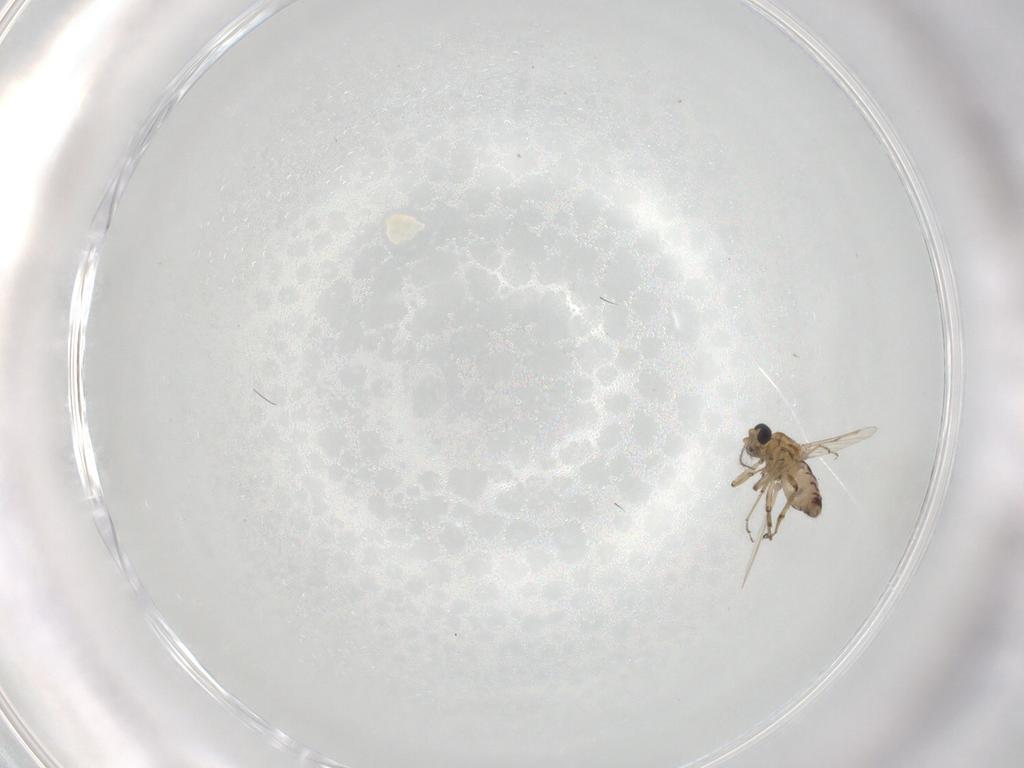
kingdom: Animalia
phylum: Arthropoda
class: Insecta
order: Diptera
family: Ceratopogonidae
